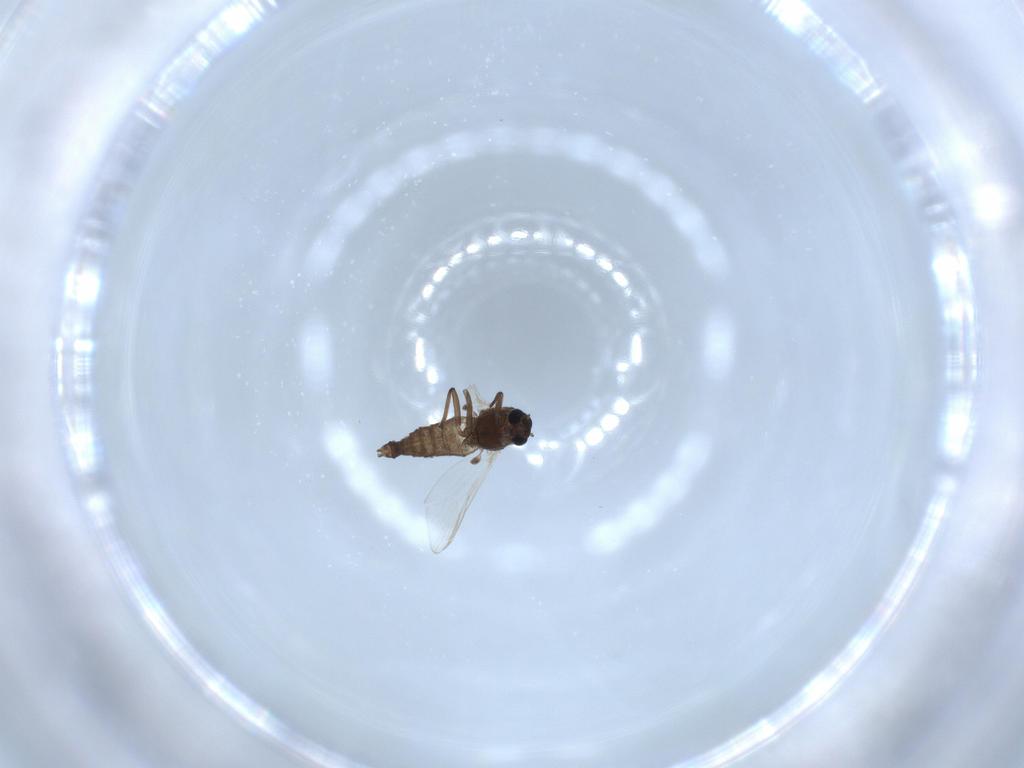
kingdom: Animalia
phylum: Arthropoda
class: Insecta
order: Diptera
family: Chironomidae
